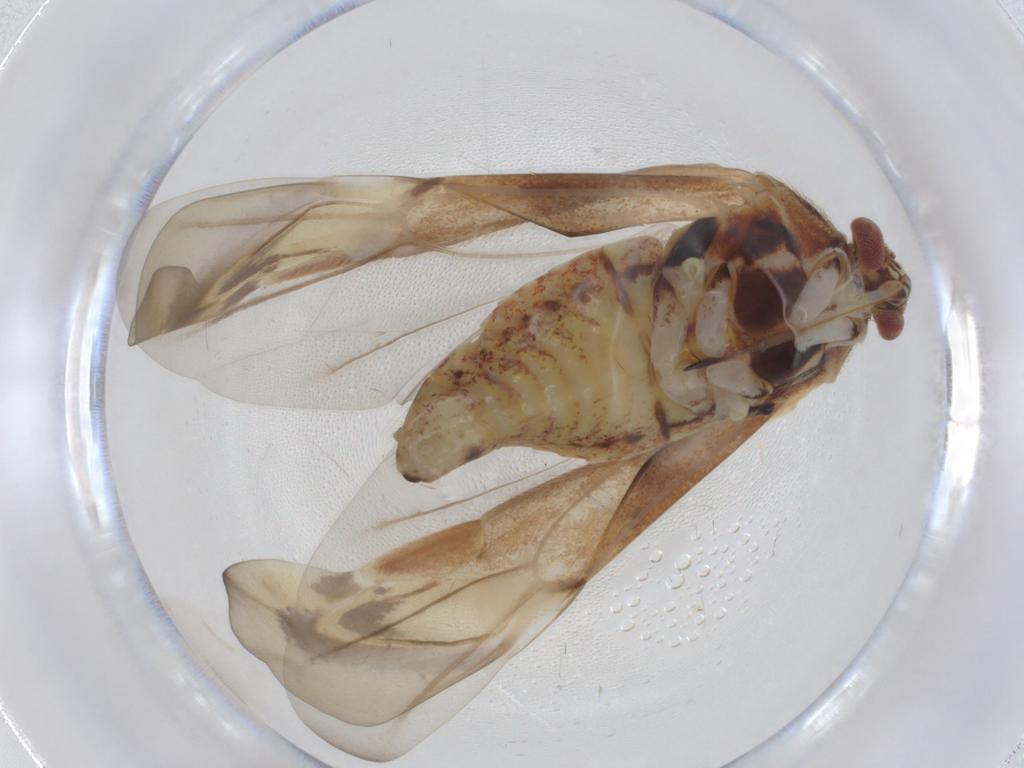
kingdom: Animalia
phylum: Arthropoda
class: Insecta
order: Hemiptera
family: Miridae
